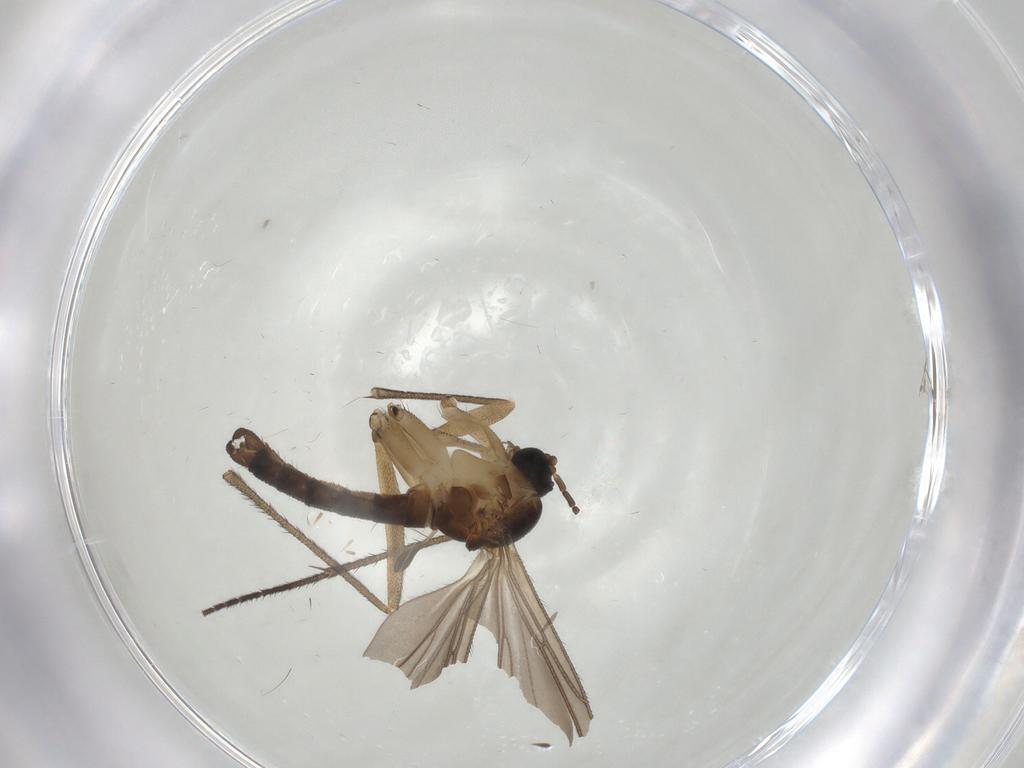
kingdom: Animalia
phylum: Arthropoda
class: Insecta
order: Diptera
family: Sciaridae
